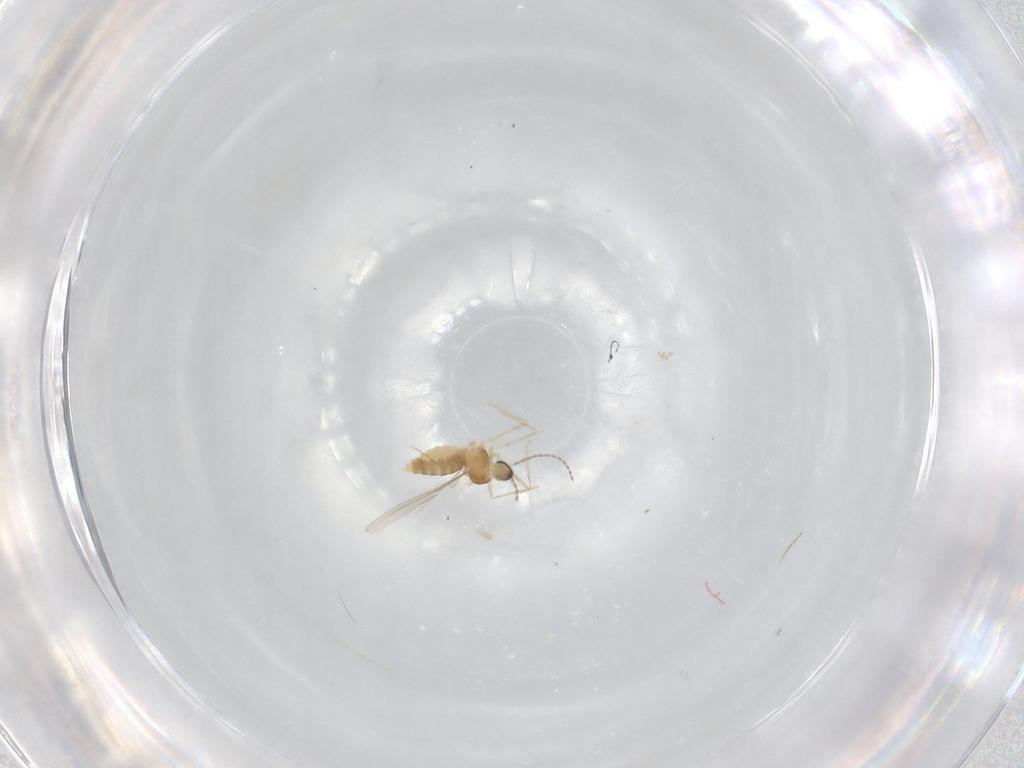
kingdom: Animalia
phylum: Arthropoda
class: Insecta
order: Diptera
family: Cecidomyiidae
